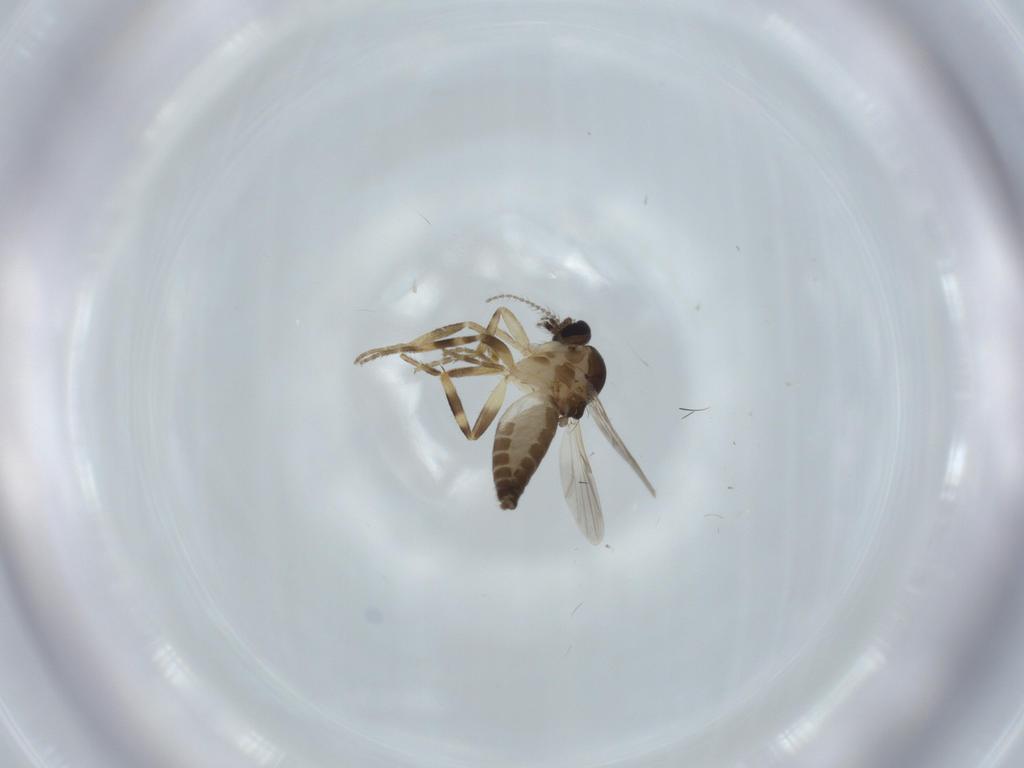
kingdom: Animalia
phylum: Arthropoda
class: Insecta
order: Diptera
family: Ceratopogonidae
